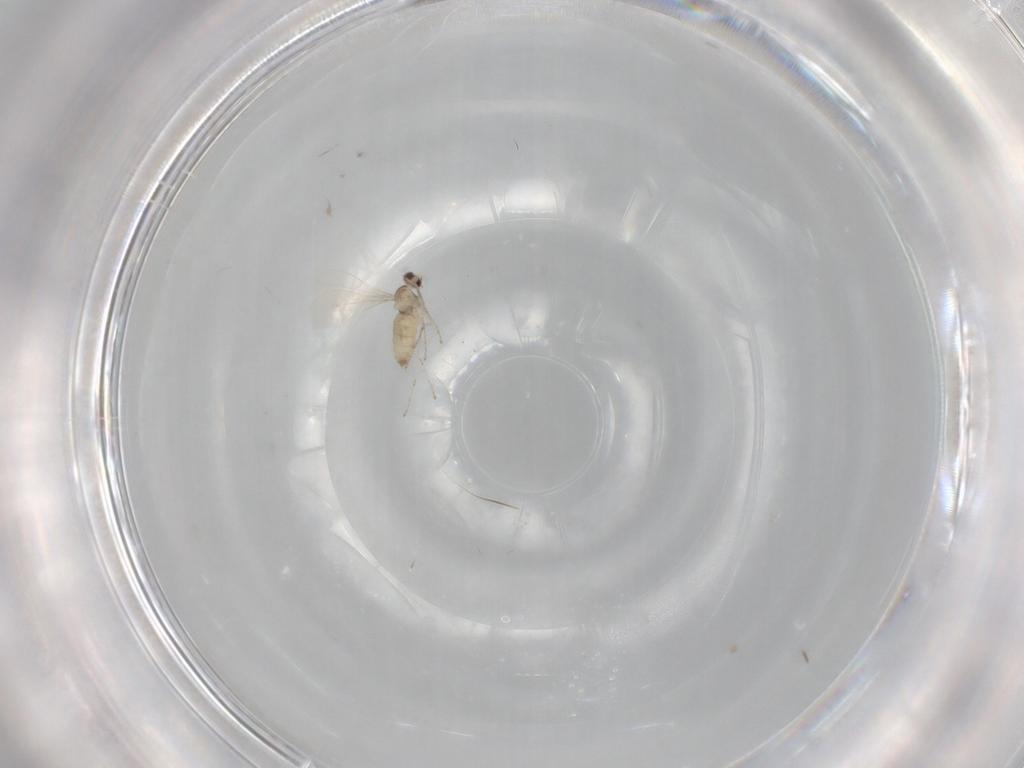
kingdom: Animalia
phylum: Arthropoda
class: Insecta
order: Diptera
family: Cecidomyiidae
